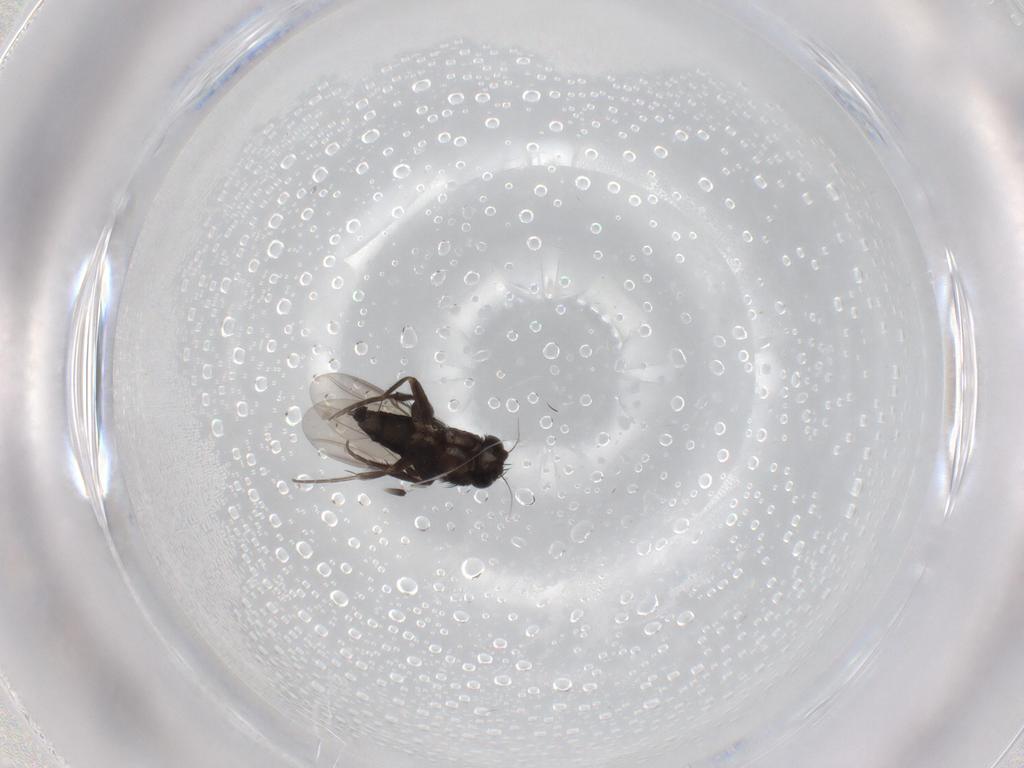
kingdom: Animalia
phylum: Arthropoda
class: Insecta
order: Diptera
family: Phoridae
